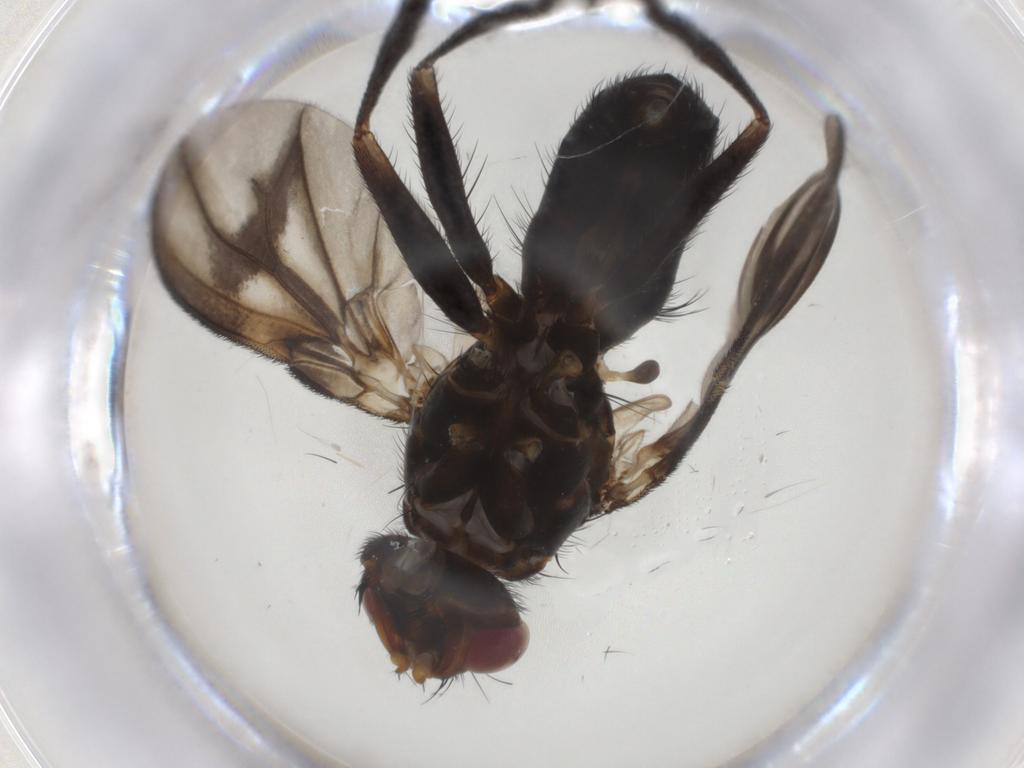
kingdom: Animalia
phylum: Arthropoda
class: Insecta
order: Diptera
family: Calliphoridae
